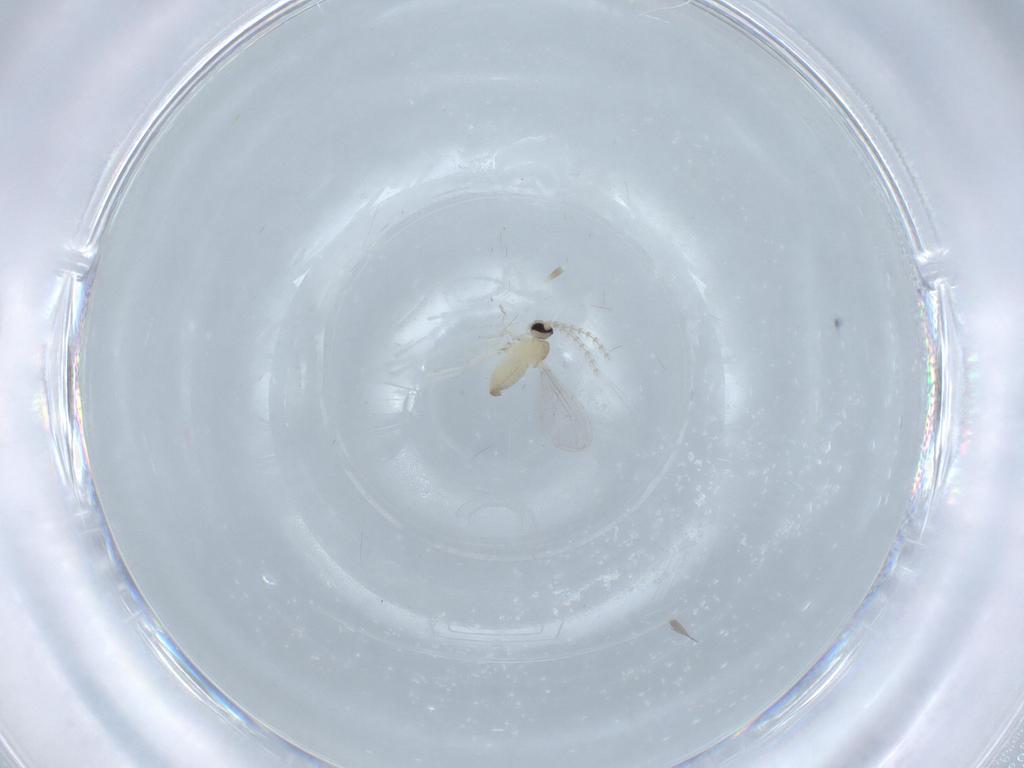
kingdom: Animalia
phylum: Arthropoda
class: Insecta
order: Diptera
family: Cecidomyiidae
